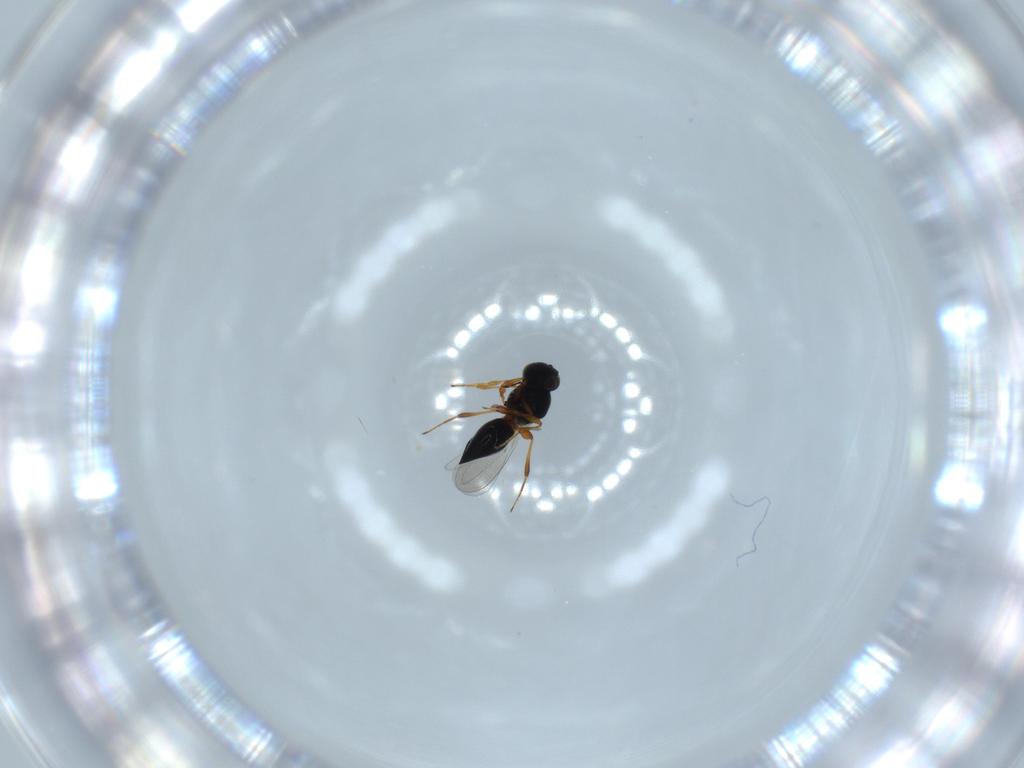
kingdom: Animalia
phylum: Arthropoda
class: Insecta
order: Hymenoptera
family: Platygastridae
